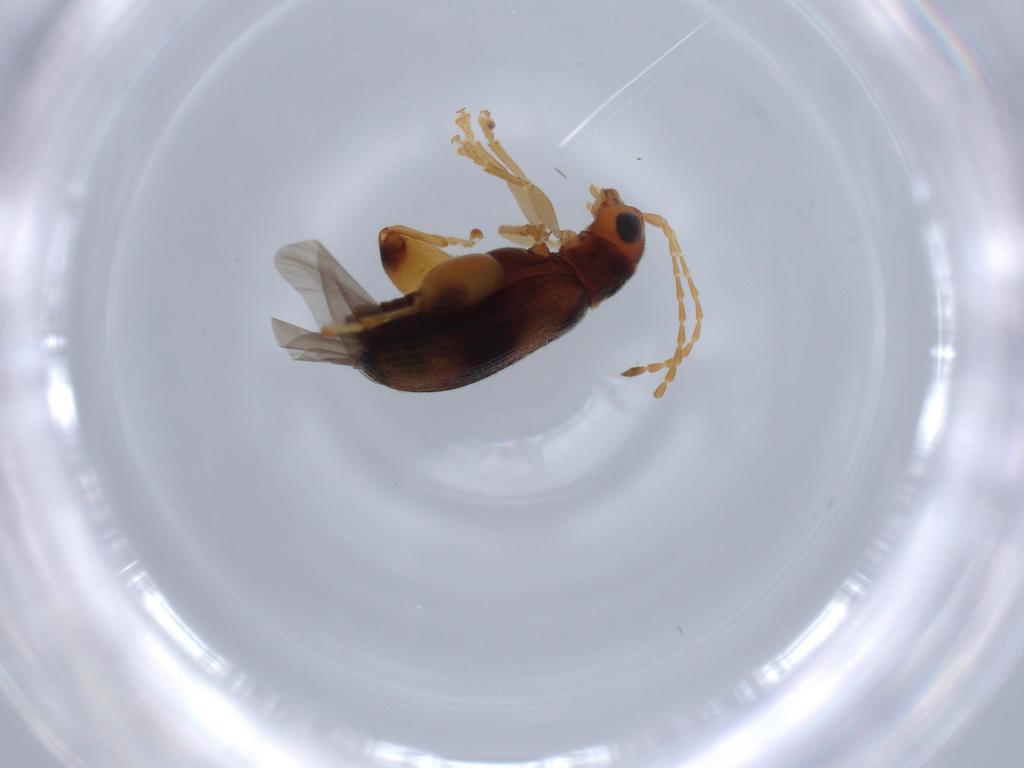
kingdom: Animalia
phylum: Arthropoda
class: Insecta
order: Coleoptera
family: Chrysomelidae
